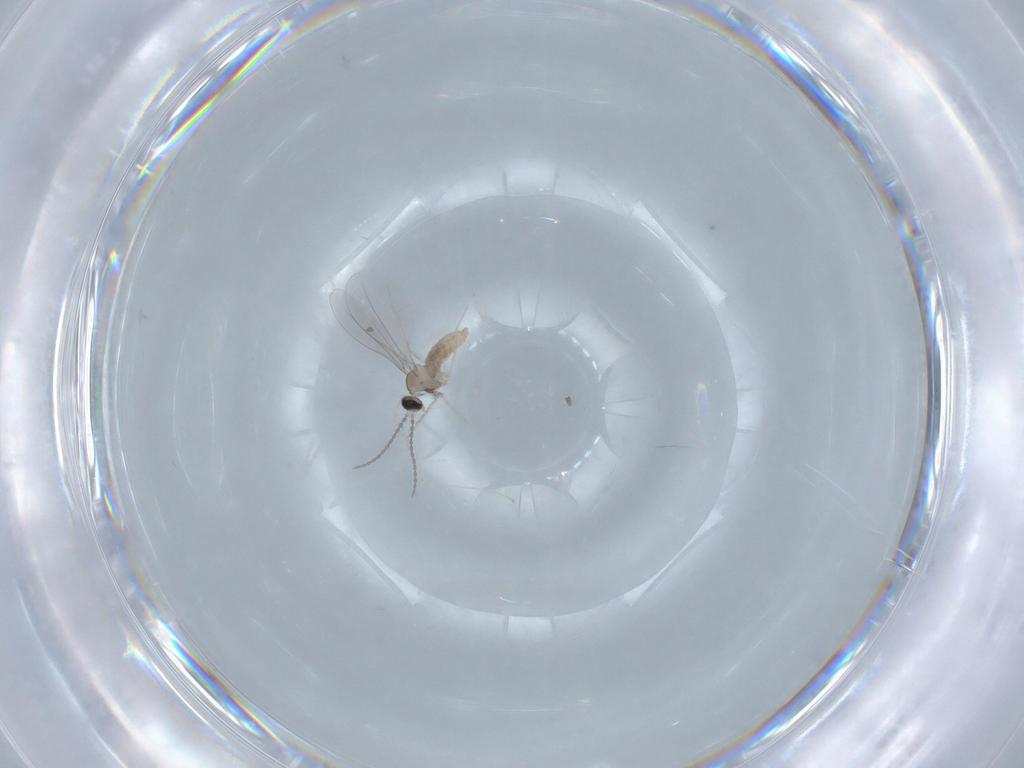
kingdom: Animalia
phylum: Arthropoda
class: Insecta
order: Diptera
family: Cecidomyiidae
